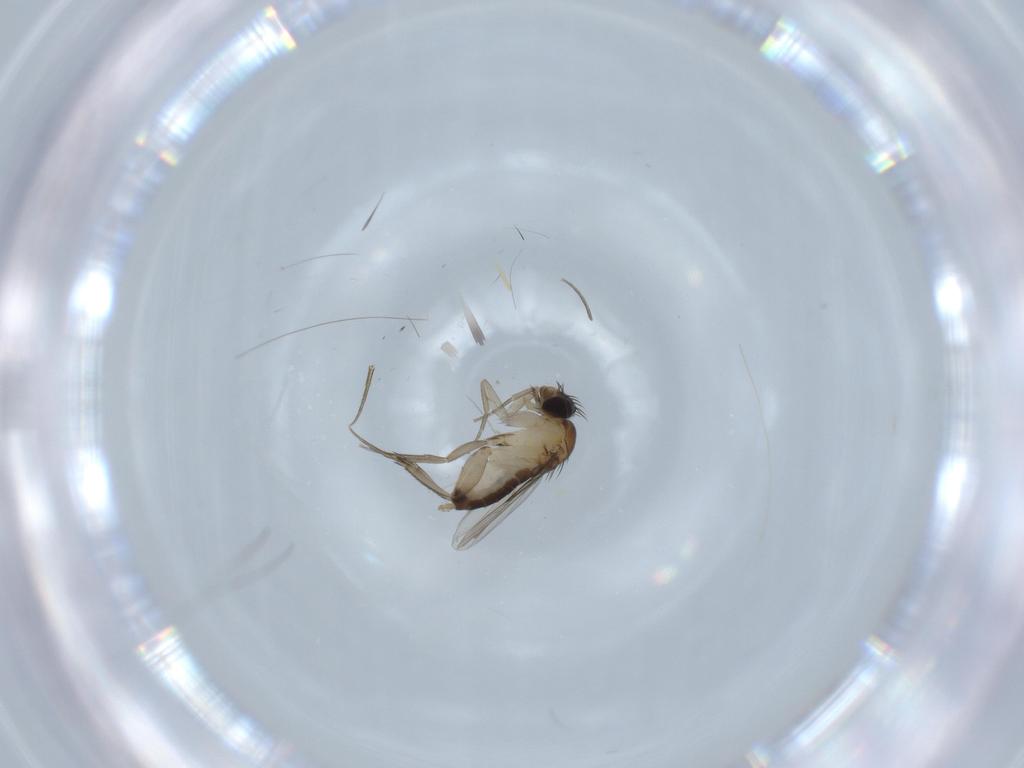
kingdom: Animalia
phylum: Arthropoda
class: Insecta
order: Diptera
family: Phoridae
